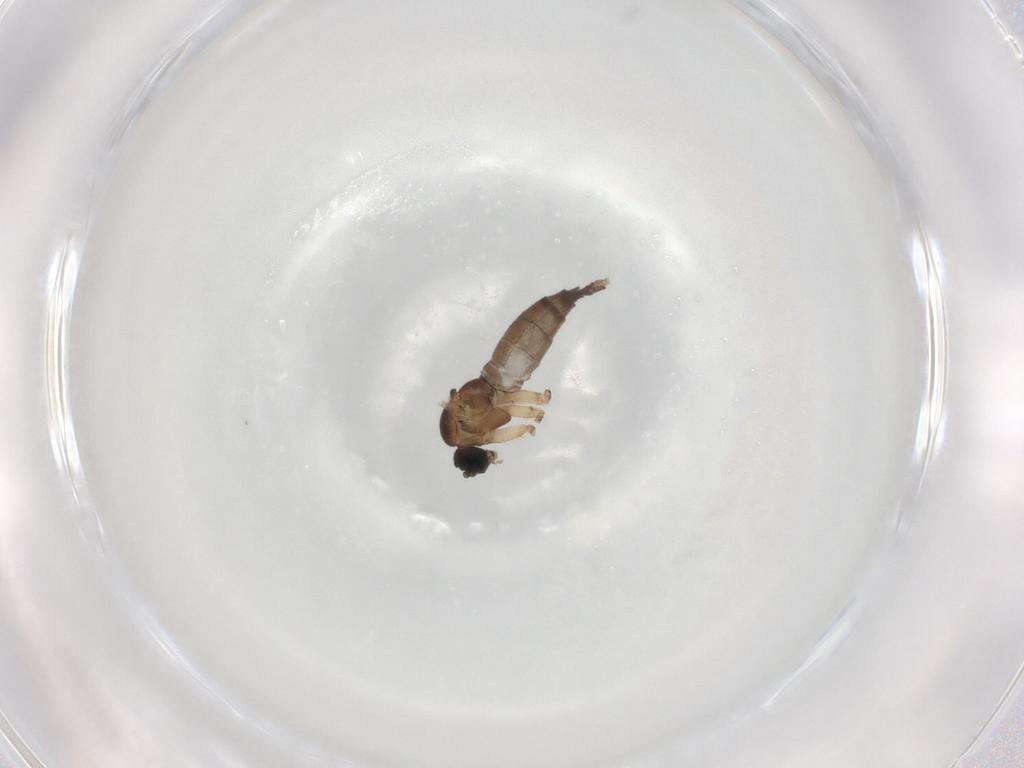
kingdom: Animalia
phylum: Arthropoda
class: Insecta
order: Diptera
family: Sciaridae
